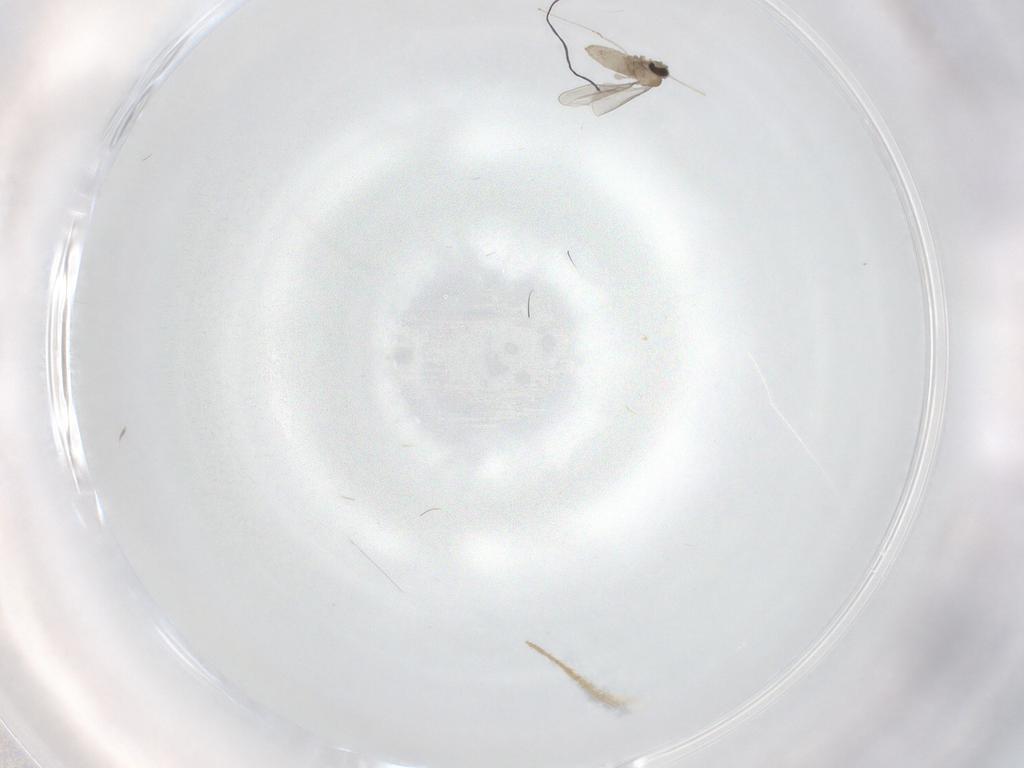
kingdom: Animalia
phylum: Arthropoda
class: Insecta
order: Diptera
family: Cecidomyiidae
